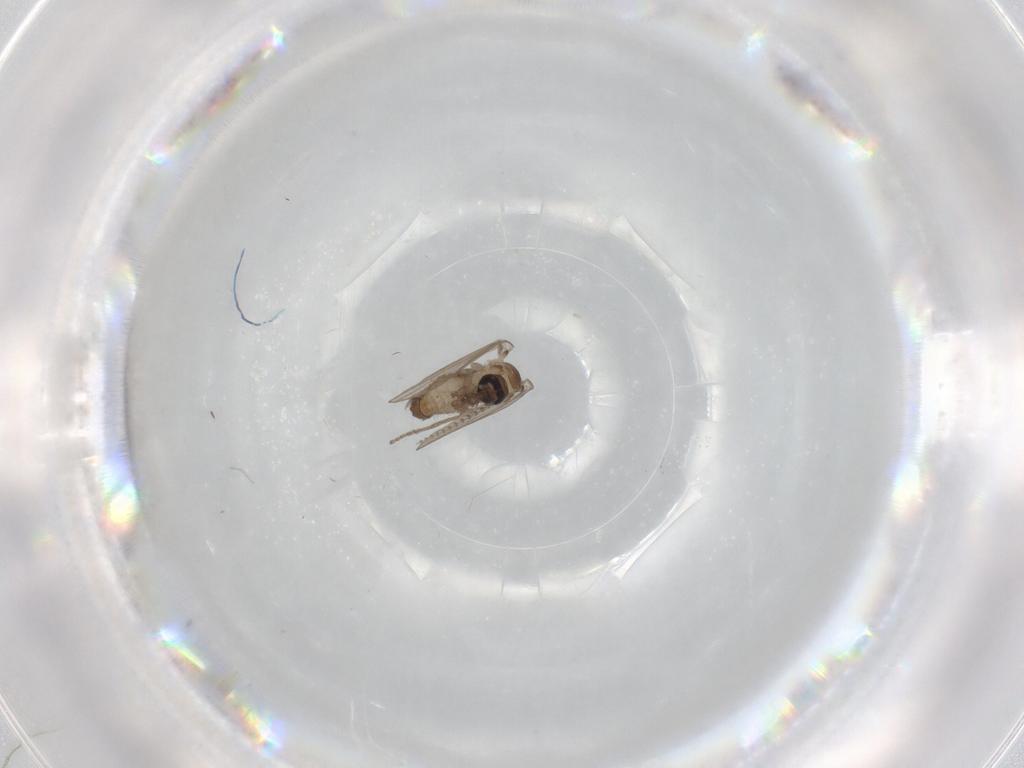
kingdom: Animalia
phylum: Arthropoda
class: Insecta
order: Diptera
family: Psychodidae
